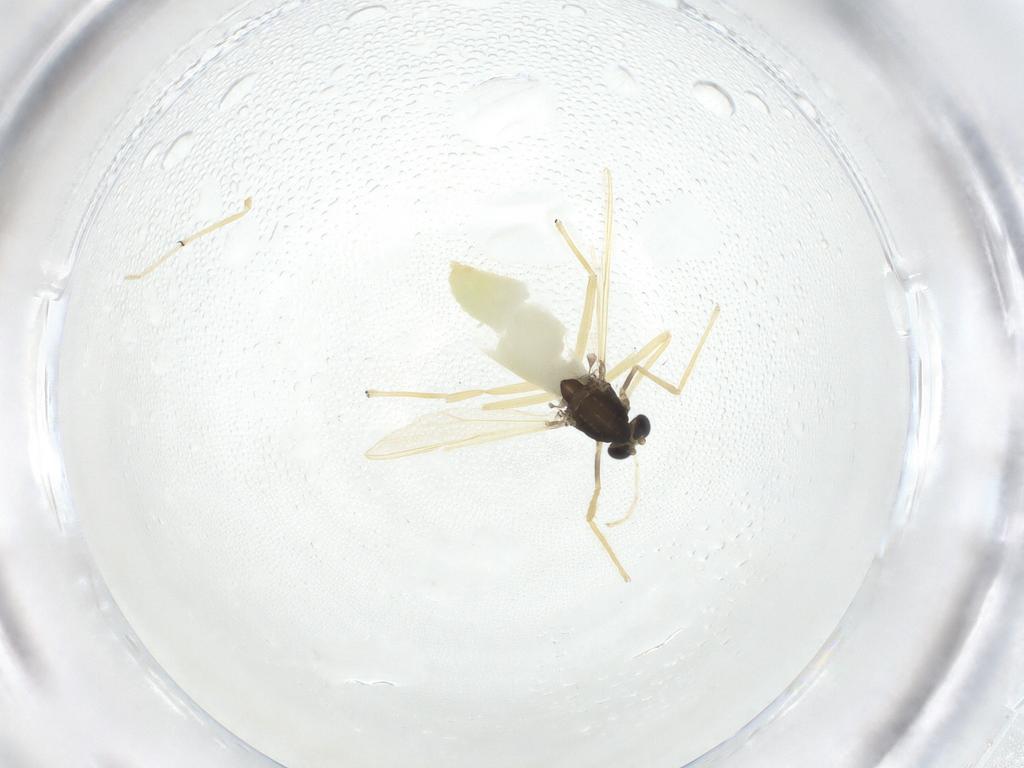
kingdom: Animalia
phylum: Arthropoda
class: Insecta
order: Diptera
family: Chironomidae
